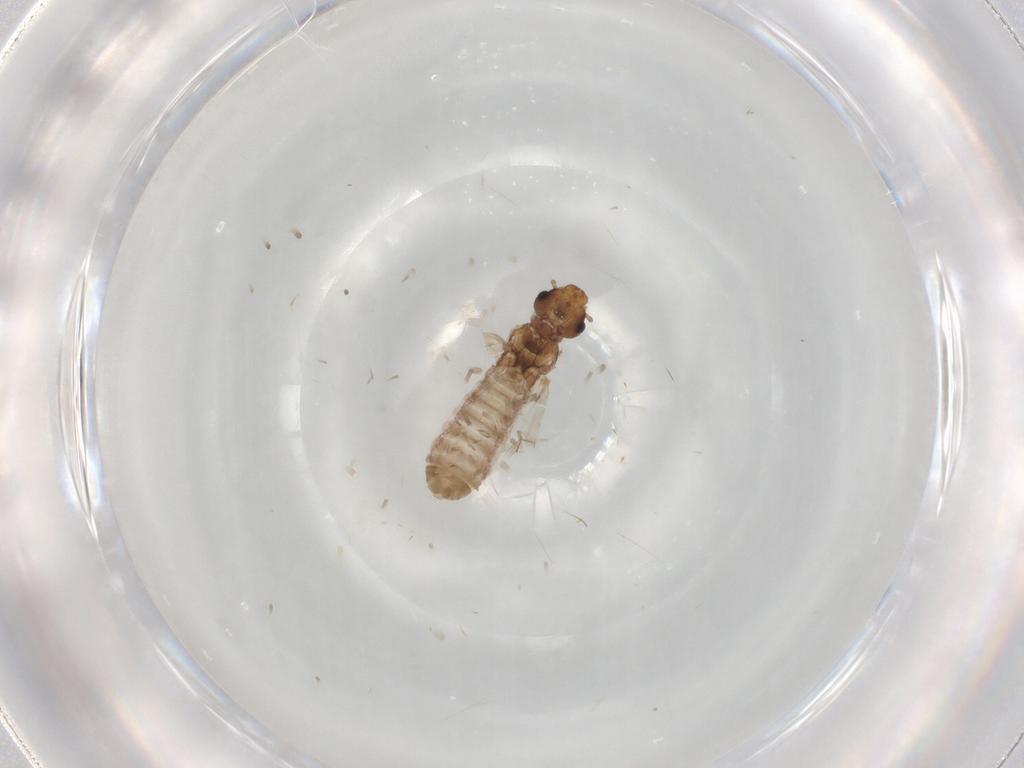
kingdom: Animalia
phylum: Arthropoda
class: Insecta
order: Psocodea
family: Liposcelididae
